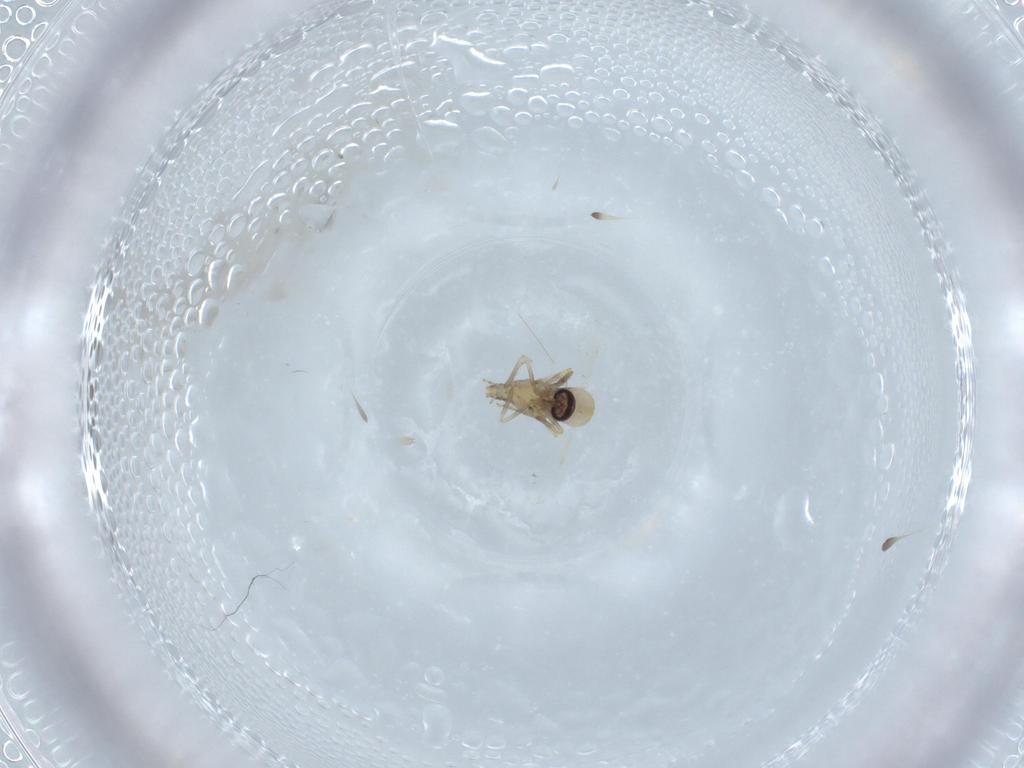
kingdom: Animalia
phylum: Arthropoda
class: Insecta
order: Diptera
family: Ceratopogonidae
